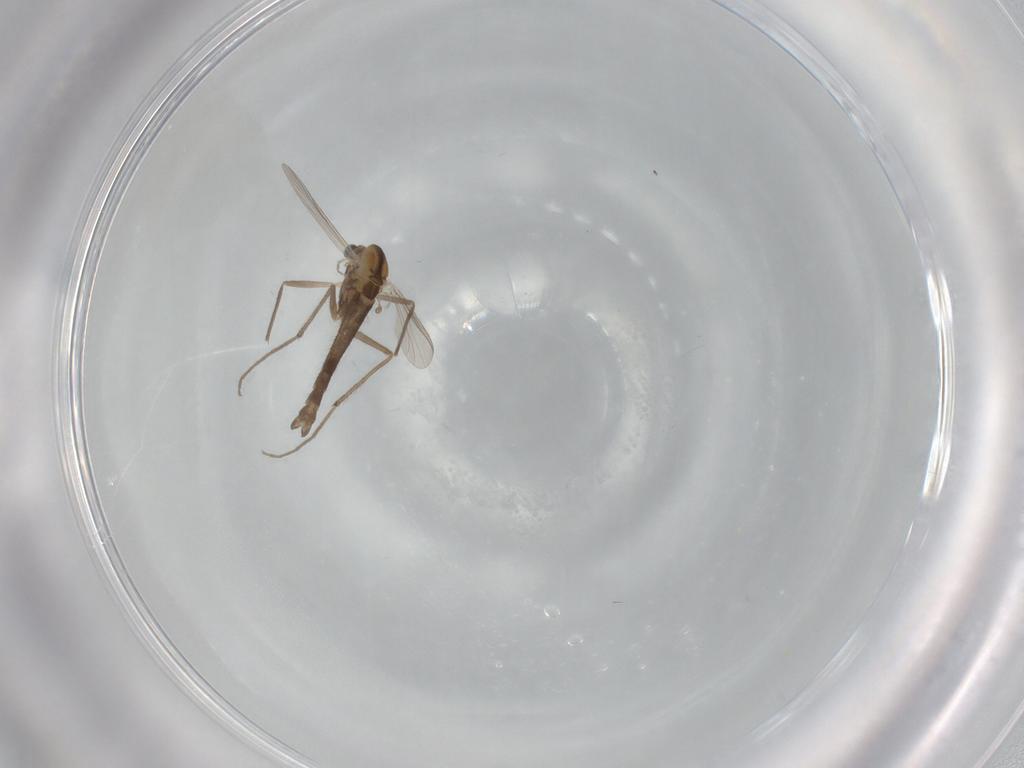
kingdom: Animalia
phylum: Arthropoda
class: Insecta
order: Diptera
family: Chironomidae
